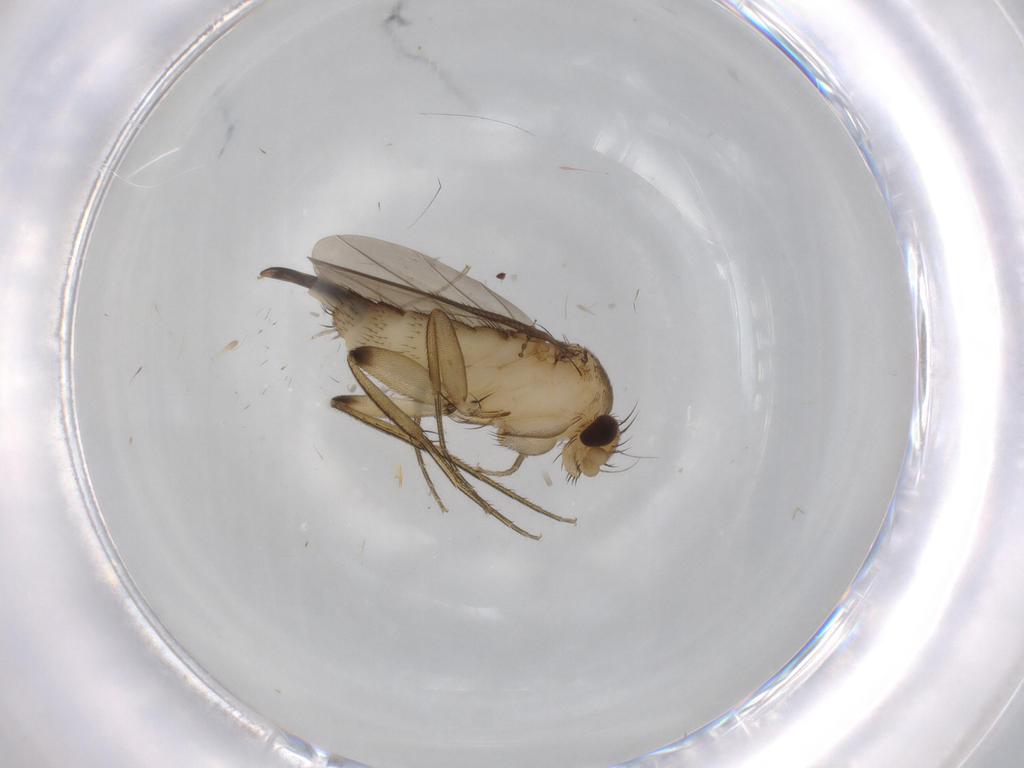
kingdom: Animalia
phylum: Arthropoda
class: Insecta
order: Diptera
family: Phoridae
